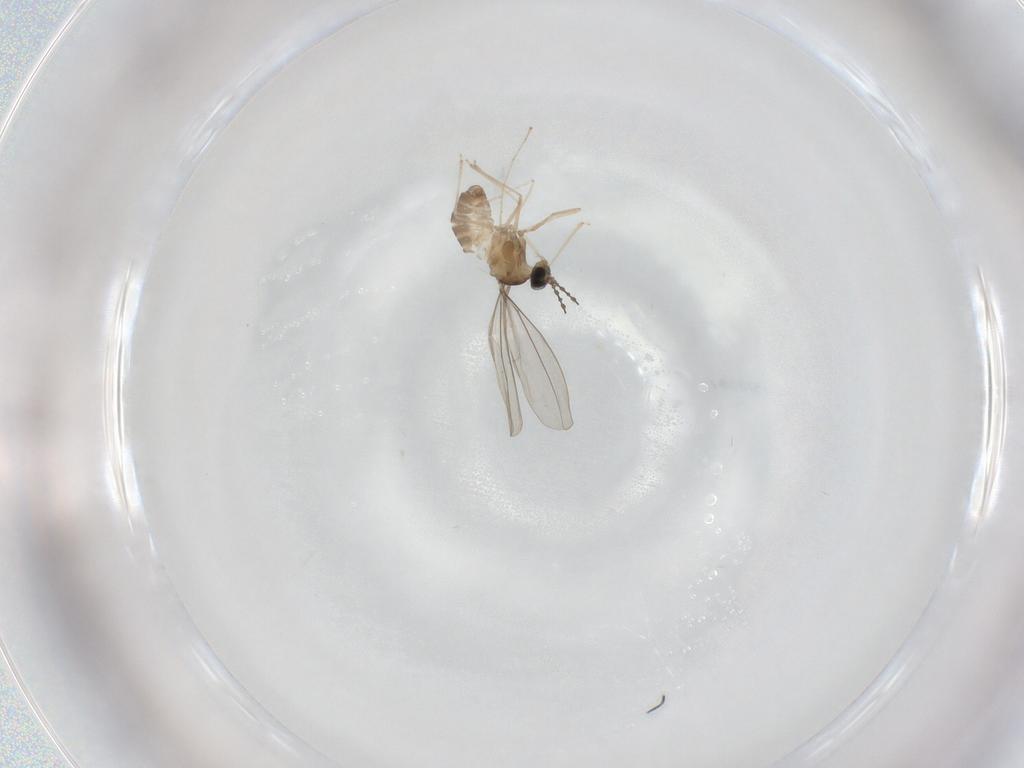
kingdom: Animalia
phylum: Arthropoda
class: Insecta
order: Diptera
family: Cecidomyiidae
